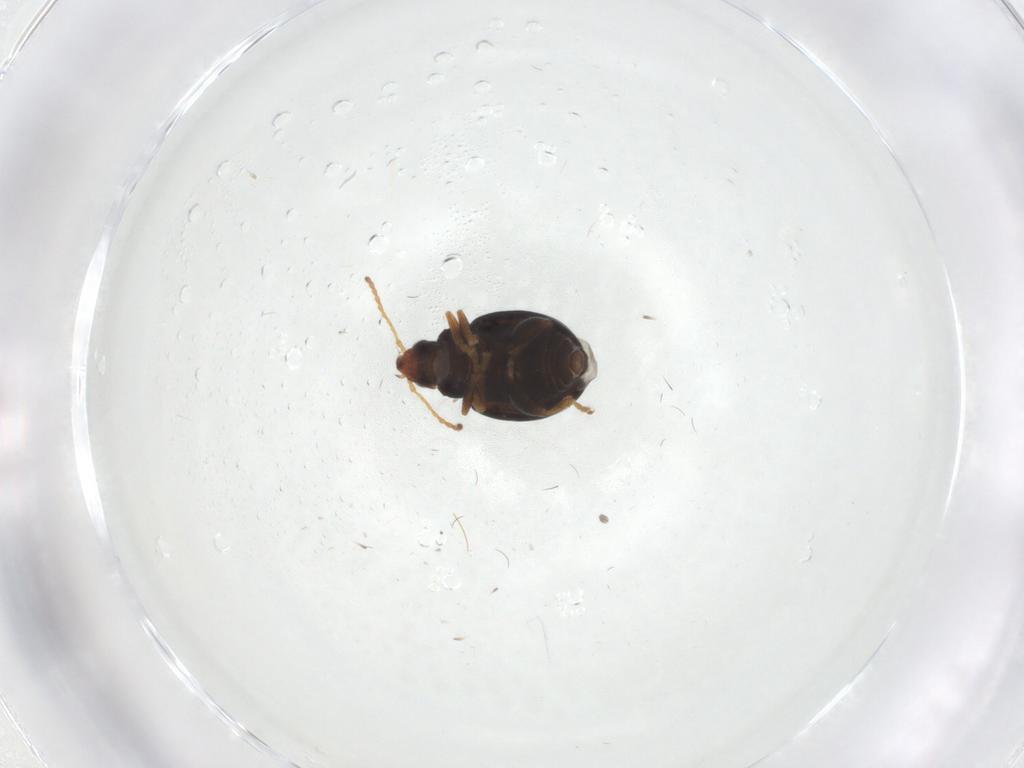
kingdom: Animalia
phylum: Arthropoda
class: Insecta
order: Coleoptera
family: Chrysomelidae
